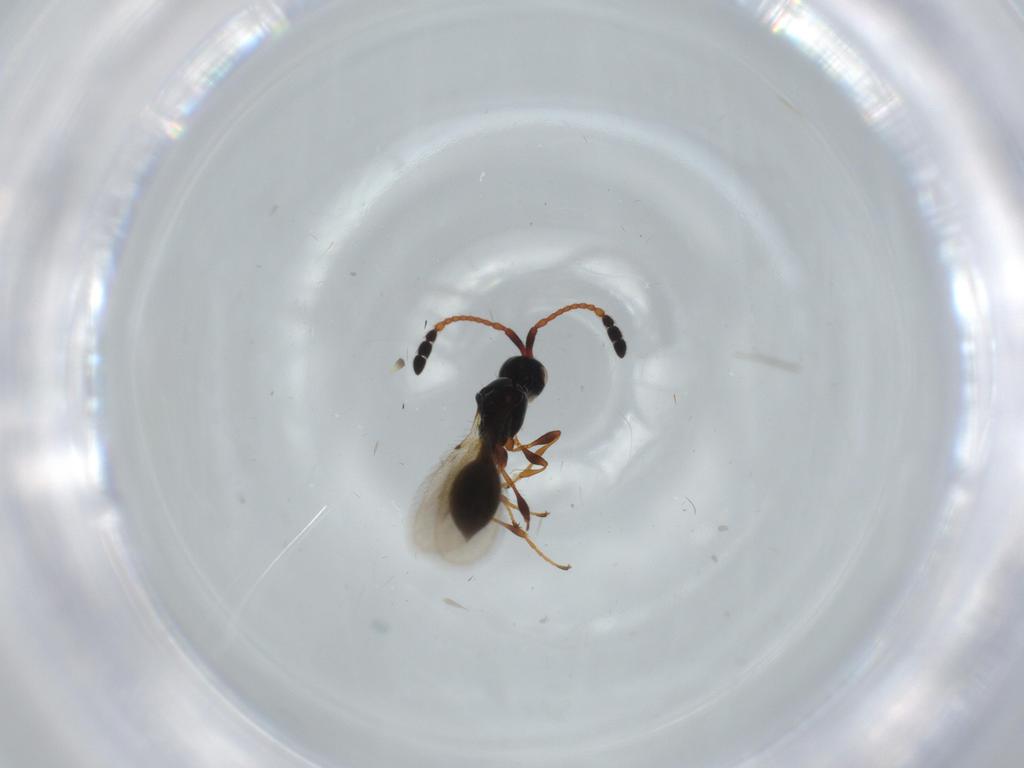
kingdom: Animalia
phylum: Arthropoda
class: Insecta
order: Hymenoptera
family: Diapriidae
